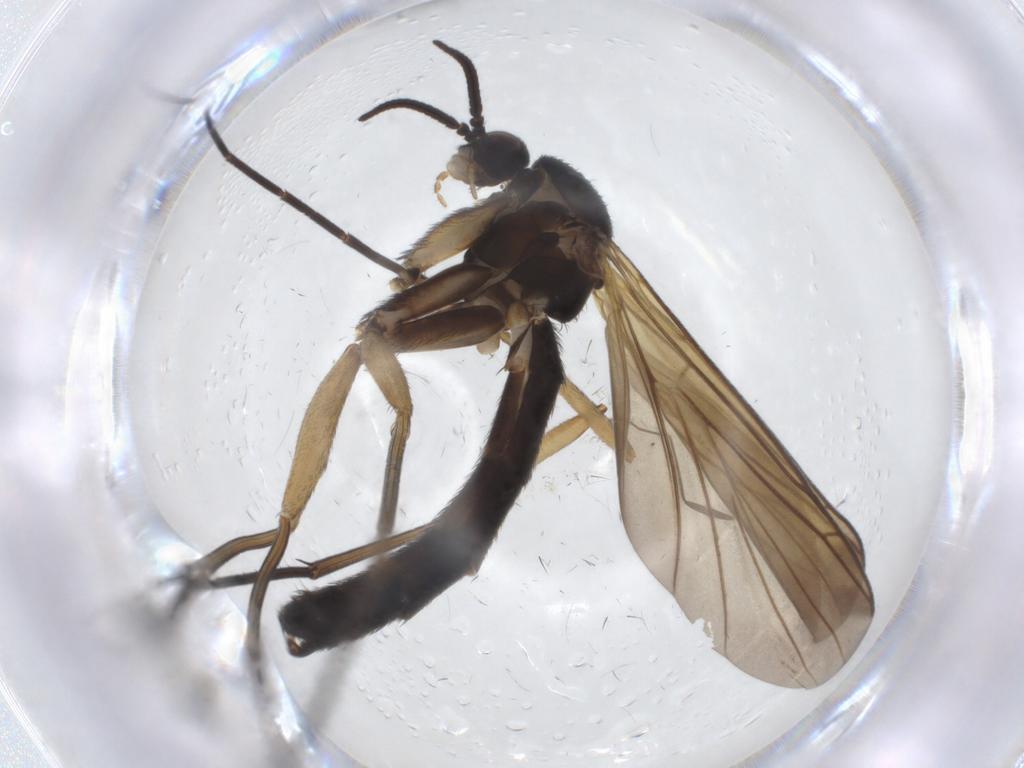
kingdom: Animalia
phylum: Arthropoda
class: Insecta
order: Diptera
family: Keroplatidae
